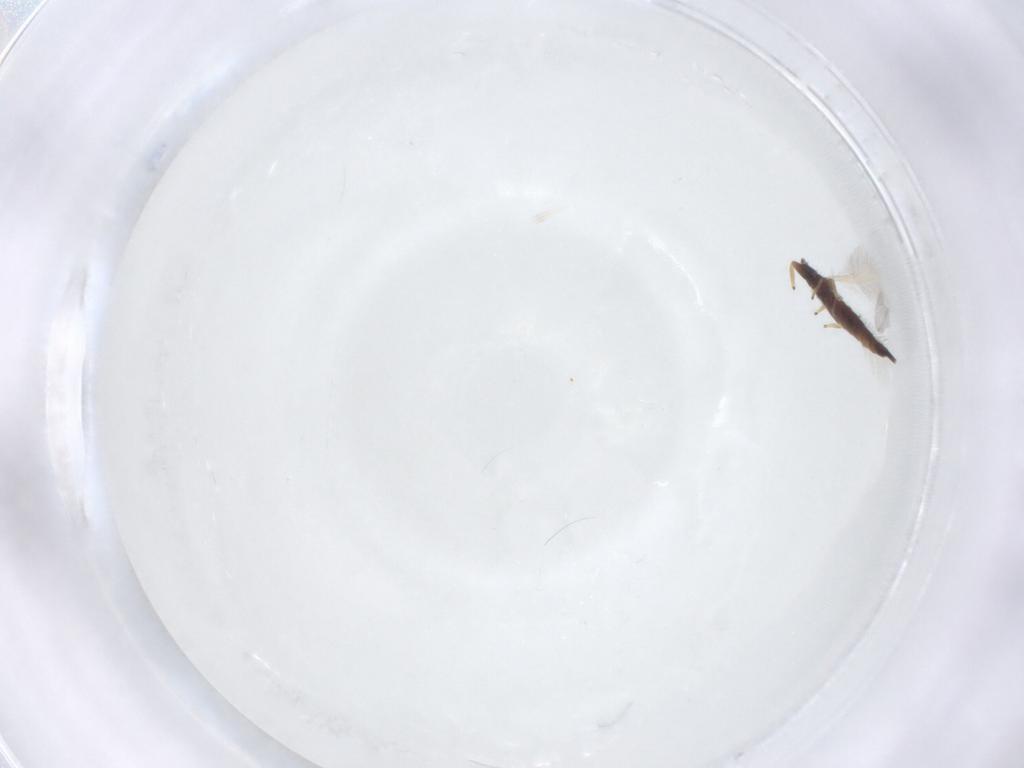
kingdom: Animalia
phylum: Arthropoda
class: Insecta
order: Thysanoptera
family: Phlaeothripidae
